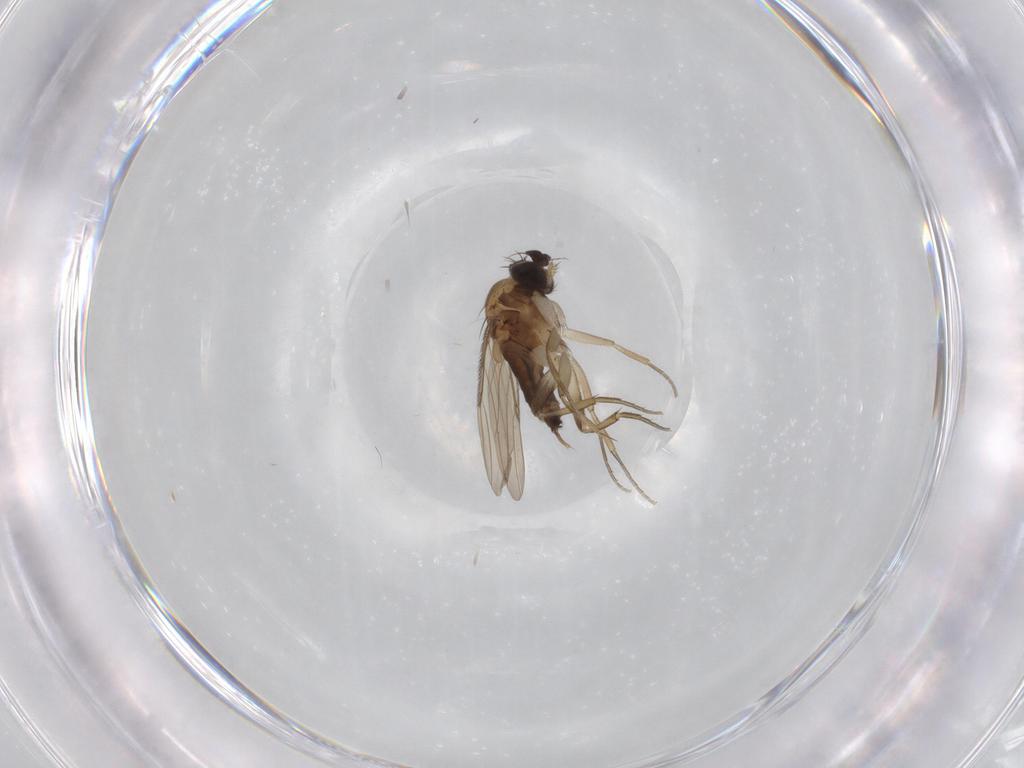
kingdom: Animalia
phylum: Arthropoda
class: Insecta
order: Diptera
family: Phoridae
